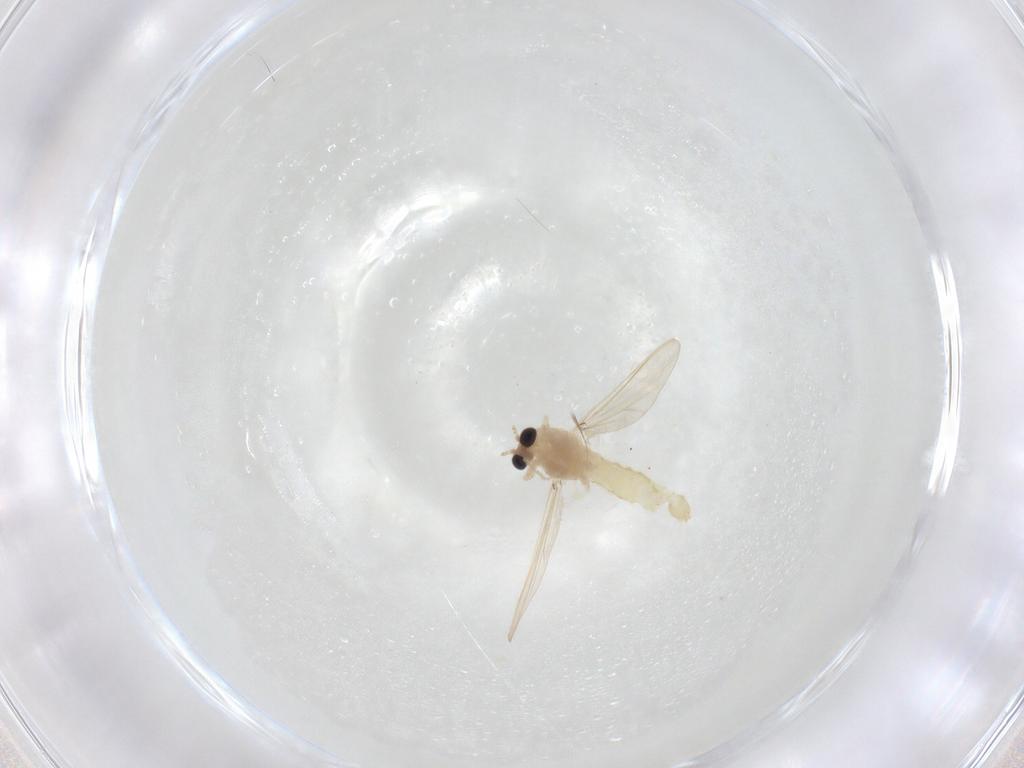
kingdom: Animalia
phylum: Arthropoda
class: Insecta
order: Diptera
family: Chironomidae
